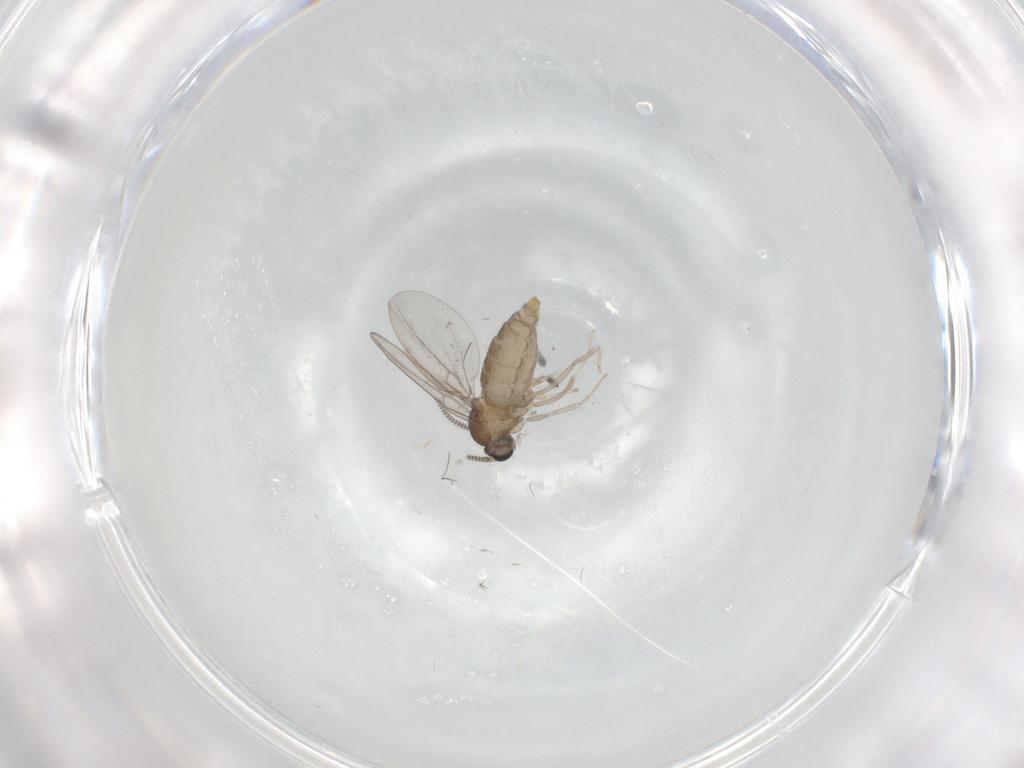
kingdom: Animalia
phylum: Arthropoda
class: Insecta
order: Diptera
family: Cecidomyiidae
